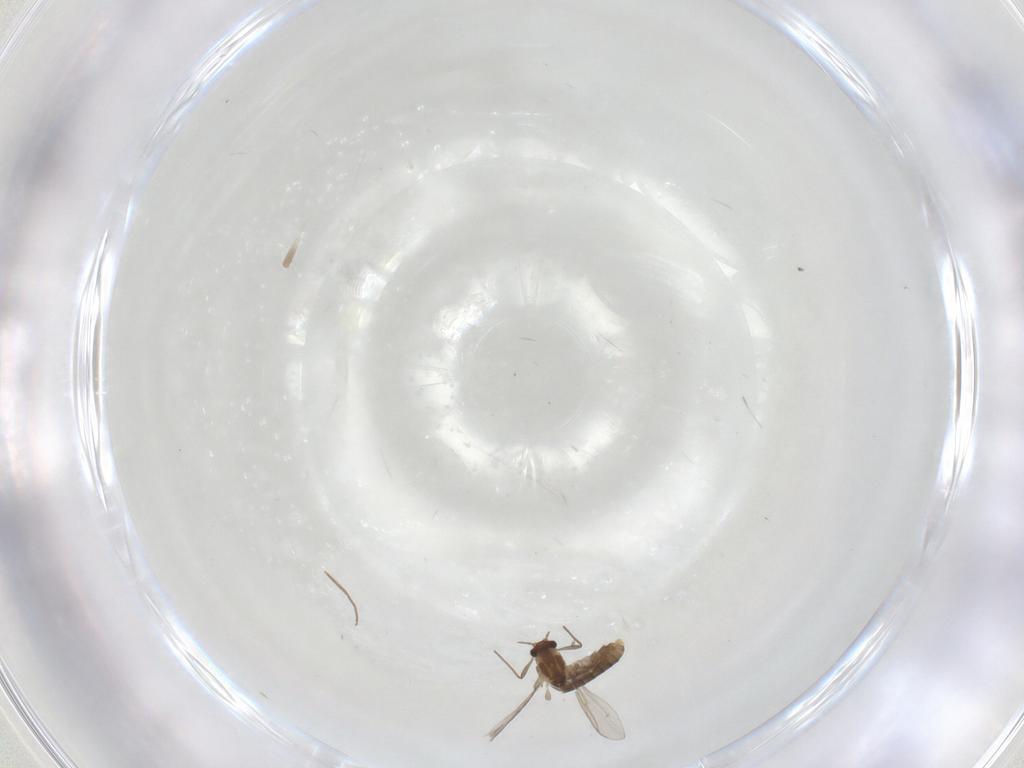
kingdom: Animalia
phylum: Arthropoda
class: Insecta
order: Diptera
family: Chironomidae
